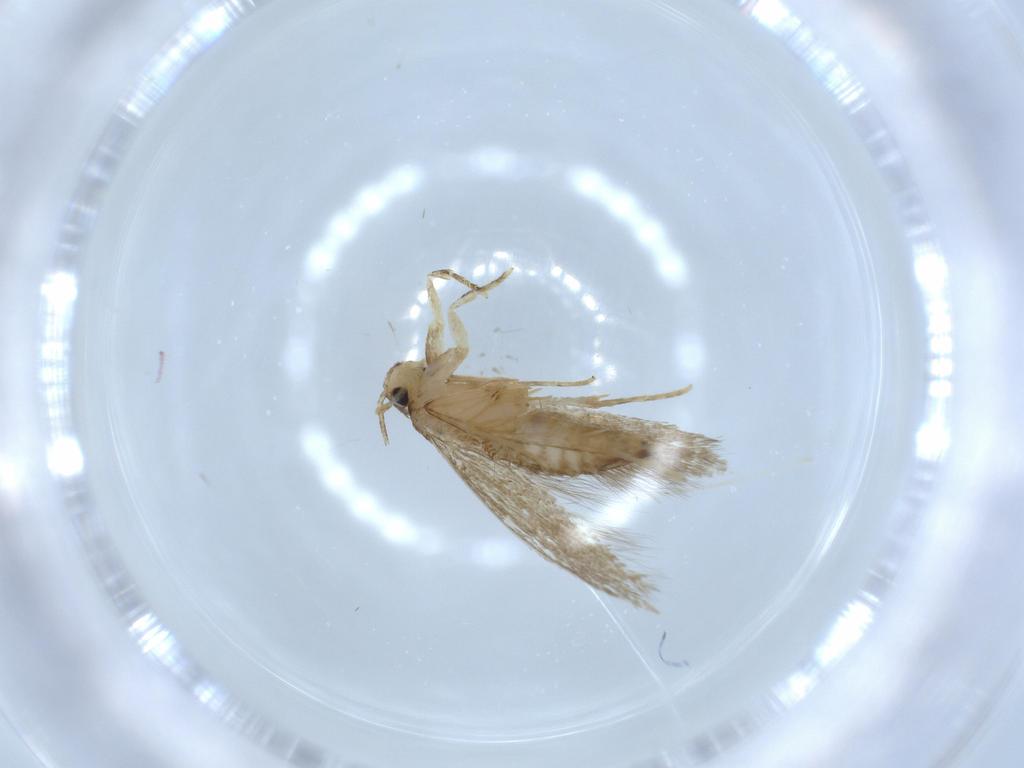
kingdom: Animalia
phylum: Arthropoda
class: Insecta
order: Lepidoptera
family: Tineidae
